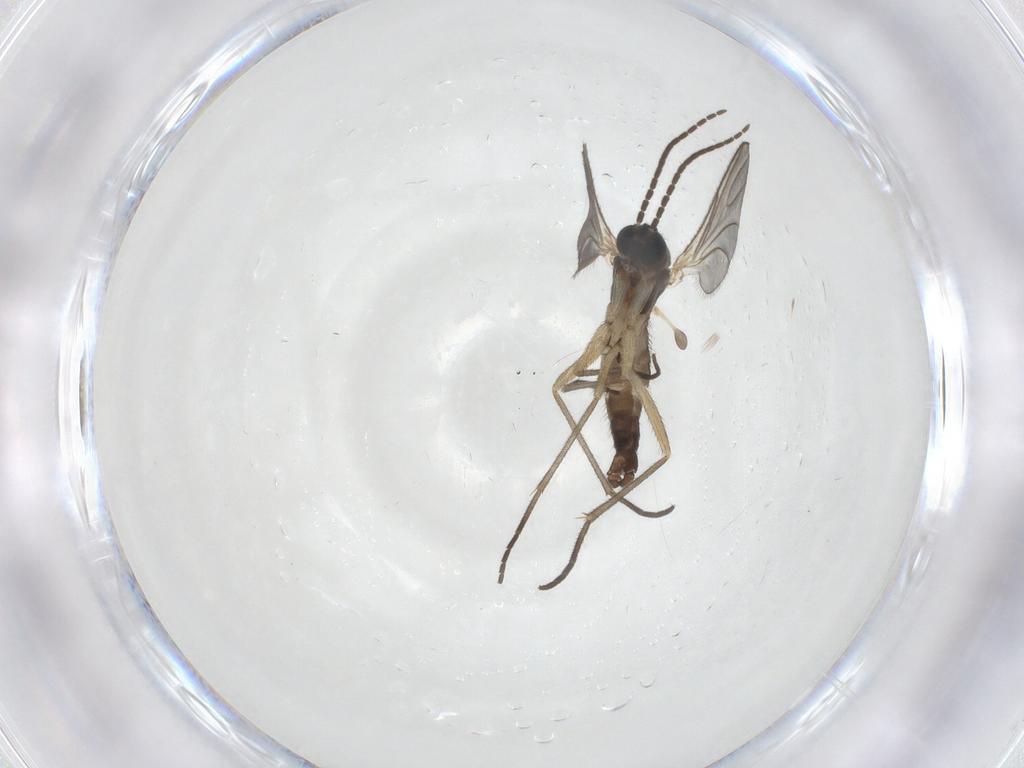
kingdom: Animalia
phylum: Arthropoda
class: Insecta
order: Diptera
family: Sciaridae
